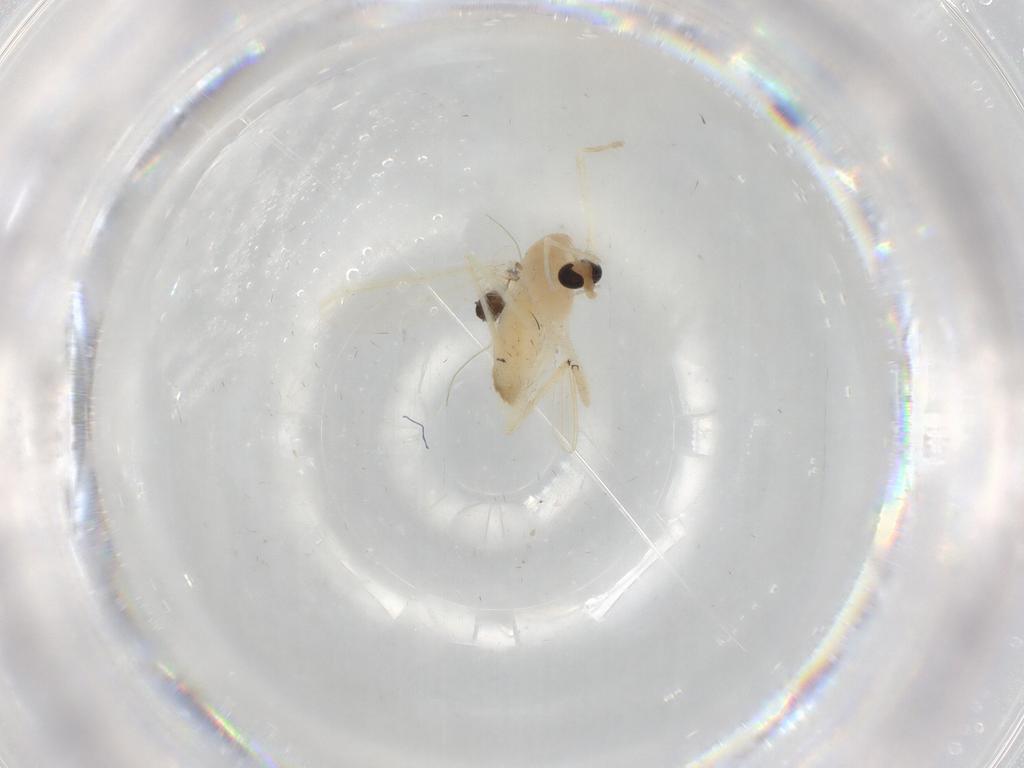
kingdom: Animalia
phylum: Arthropoda
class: Insecta
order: Diptera
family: Chironomidae
